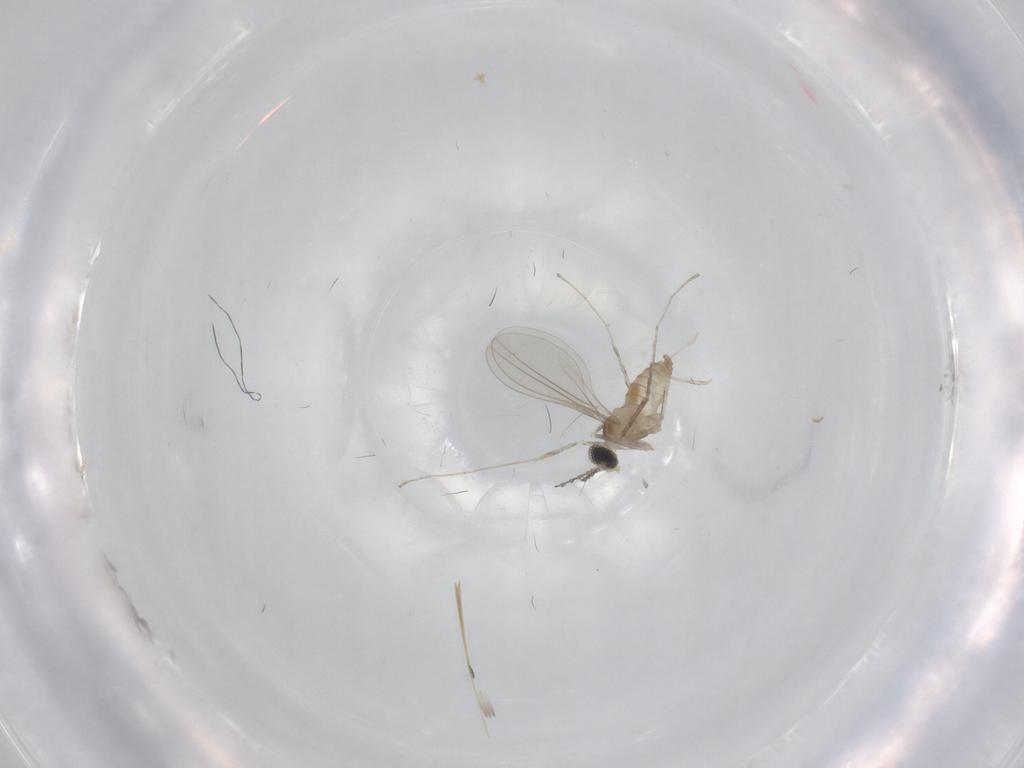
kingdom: Animalia
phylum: Arthropoda
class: Insecta
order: Diptera
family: Cecidomyiidae
